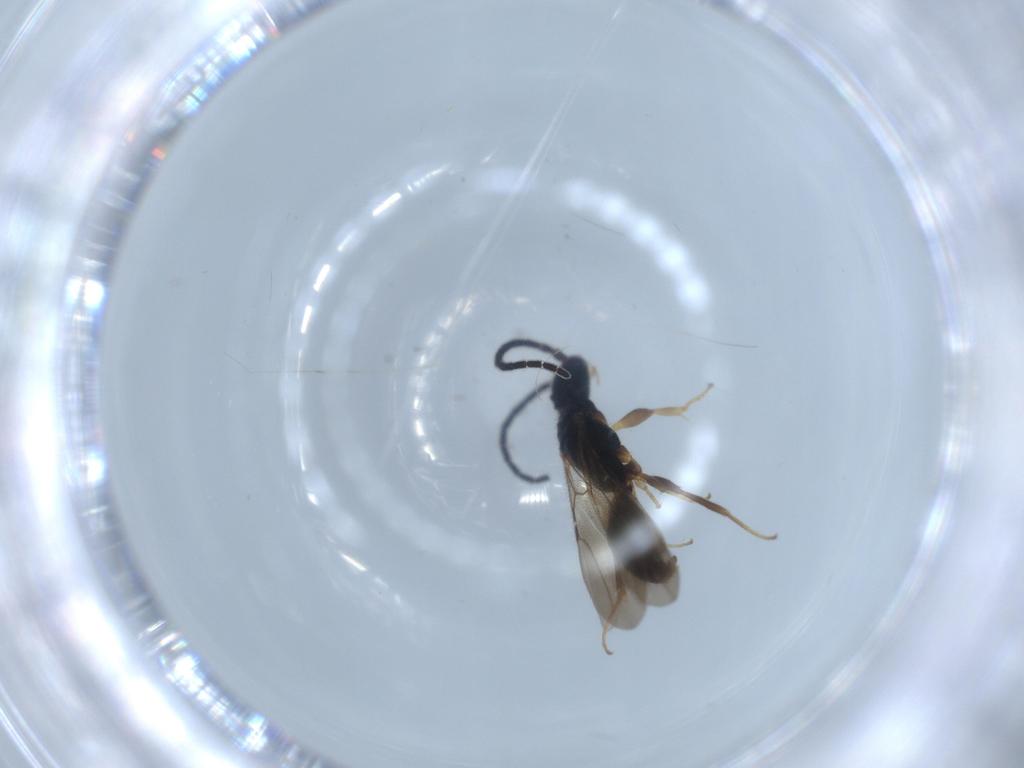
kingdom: Animalia
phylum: Arthropoda
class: Insecta
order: Hymenoptera
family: Bethylidae
